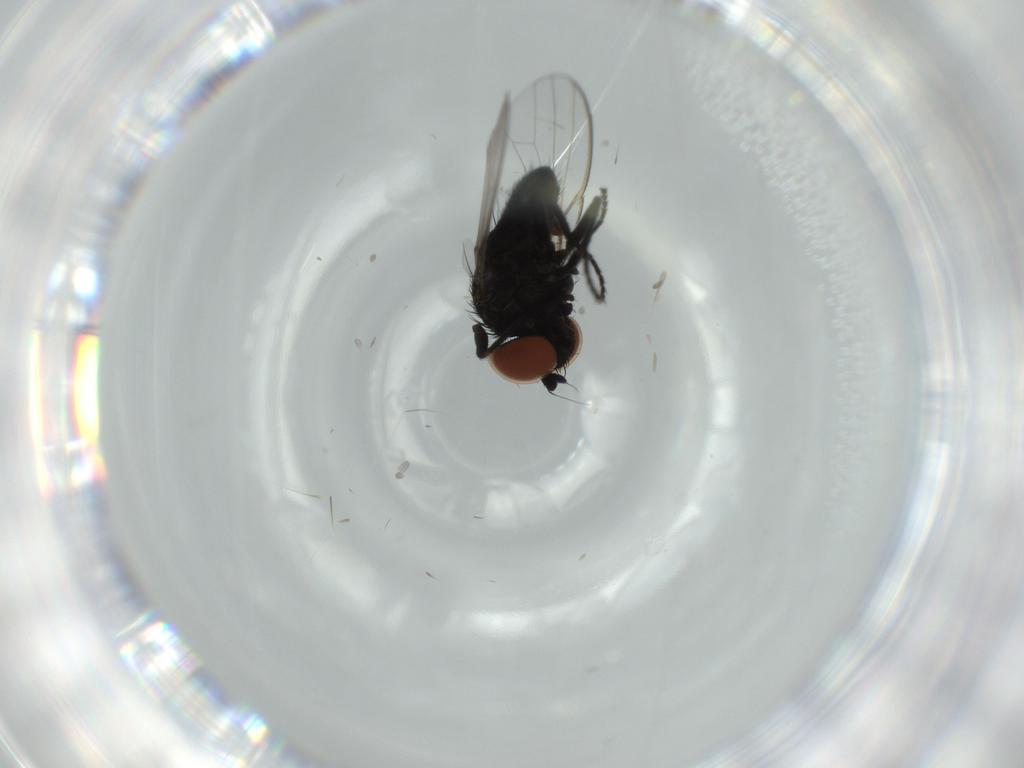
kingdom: Animalia
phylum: Arthropoda
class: Insecta
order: Diptera
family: Milichiidae
